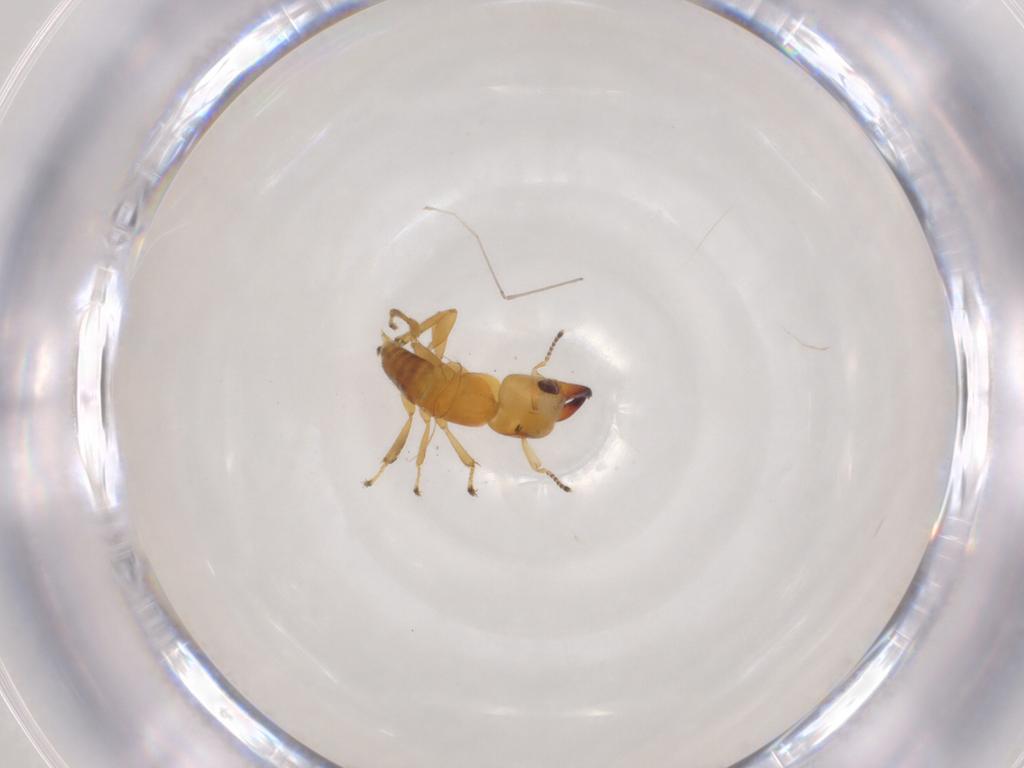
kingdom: Animalia
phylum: Arthropoda
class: Insecta
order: Hymenoptera
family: Pteromalidae
